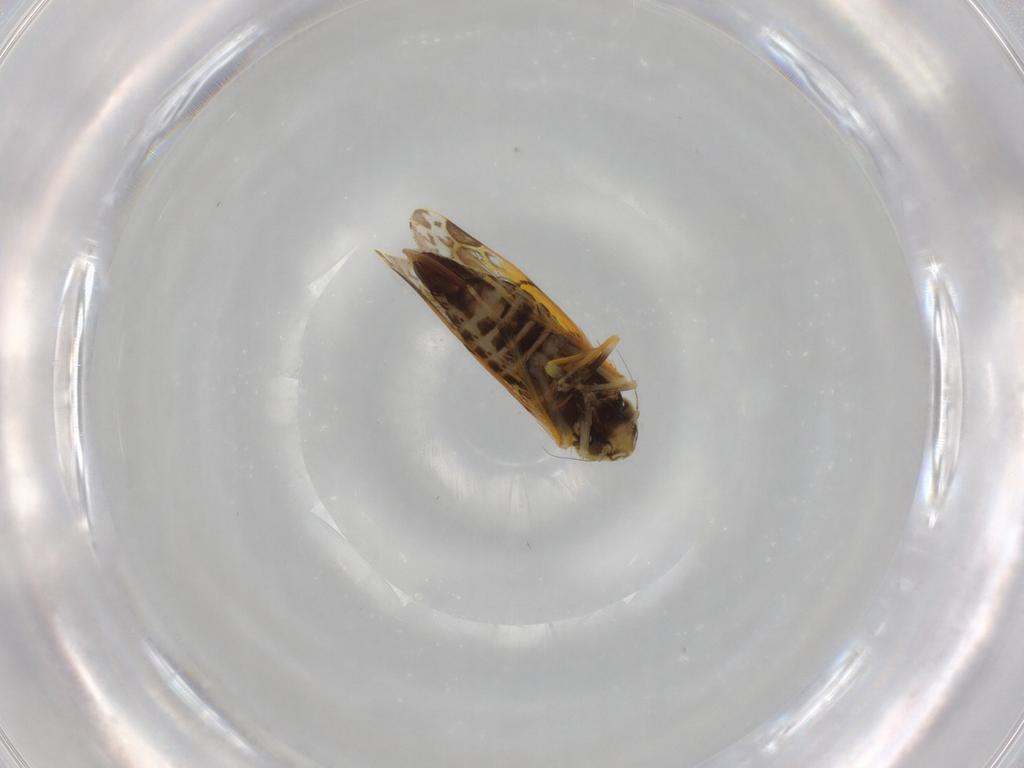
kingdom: Animalia
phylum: Arthropoda
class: Insecta
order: Hemiptera
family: Cicadellidae
